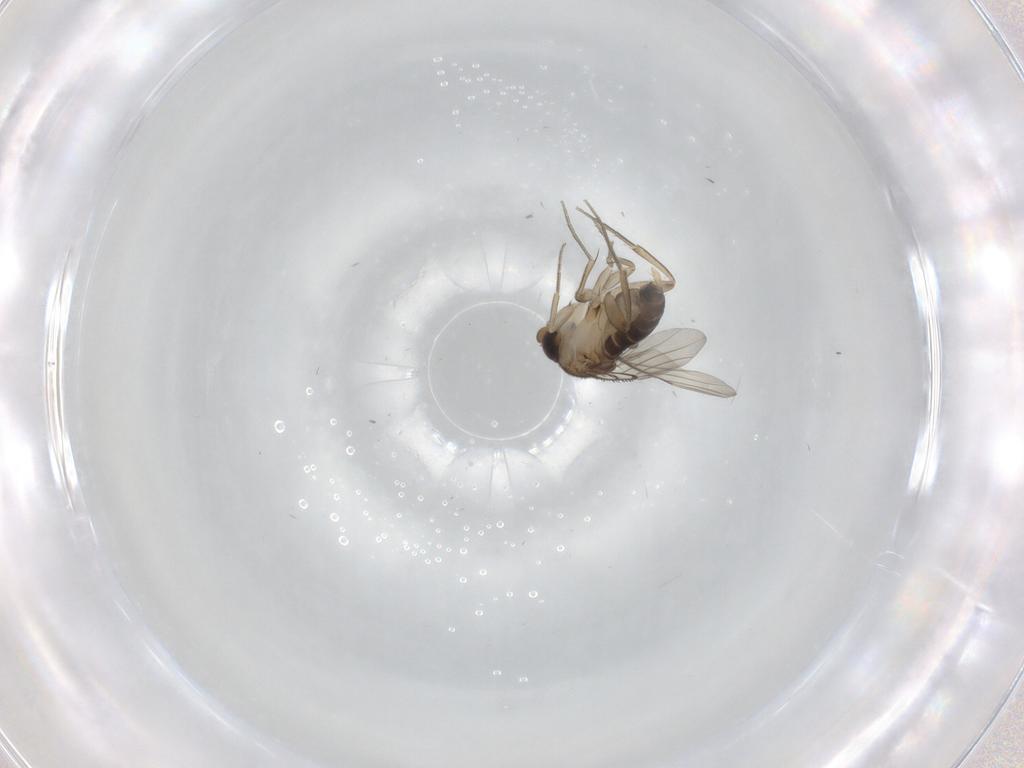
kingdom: Animalia
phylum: Arthropoda
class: Insecta
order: Diptera
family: Phoridae
